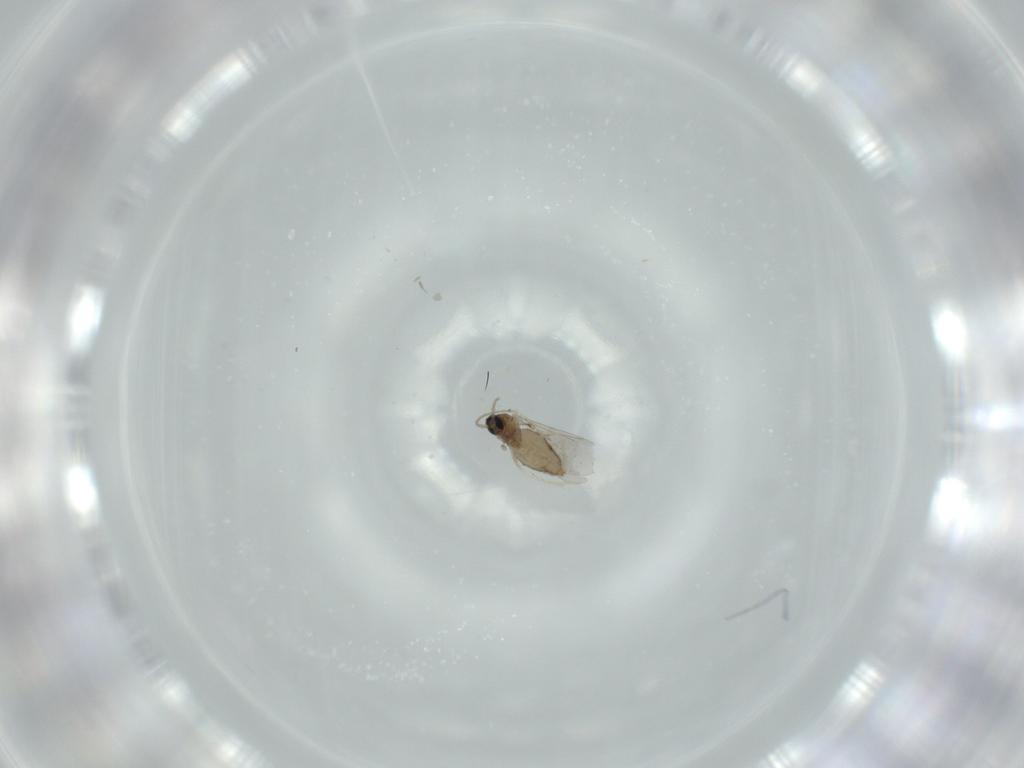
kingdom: Animalia
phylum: Arthropoda
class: Insecta
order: Diptera
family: Cecidomyiidae
